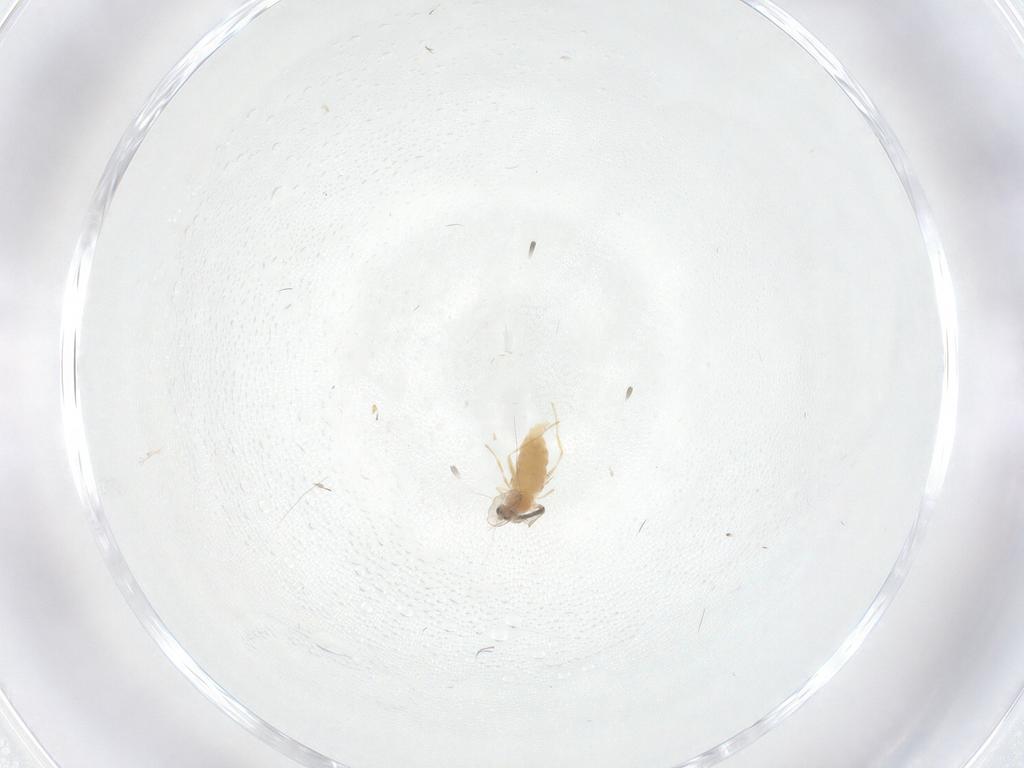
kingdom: Animalia
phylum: Arthropoda
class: Insecta
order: Diptera
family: Cecidomyiidae
